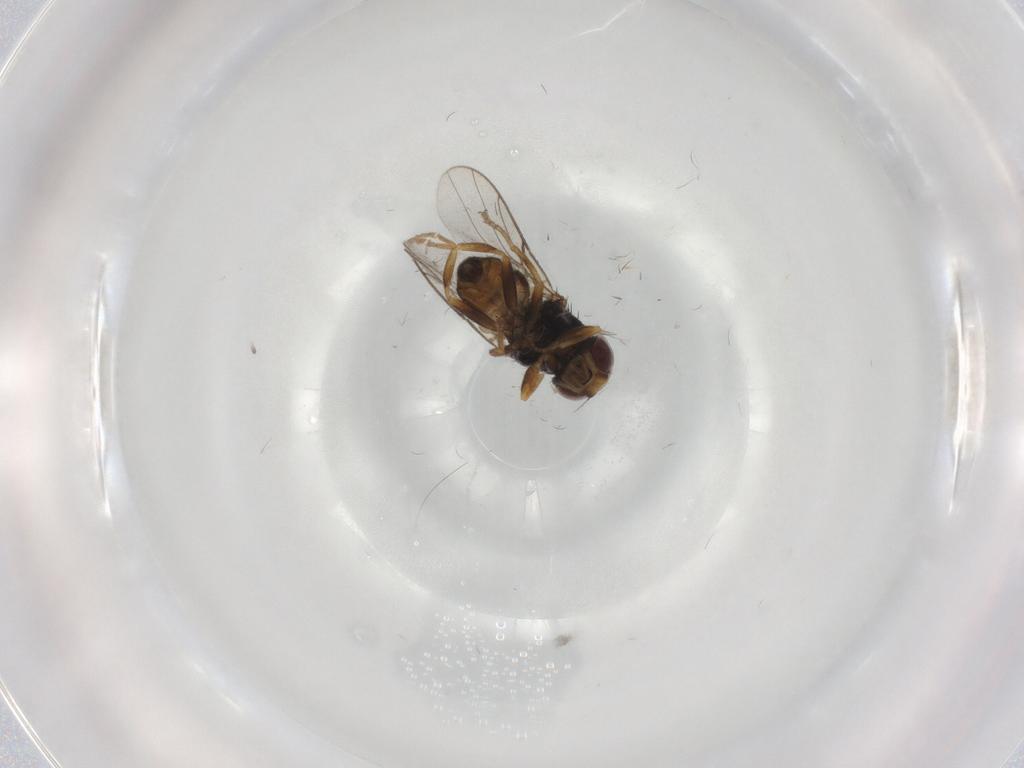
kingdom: Animalia
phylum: Arthropoda
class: Insecta
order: Diptera
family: Chloropidae
